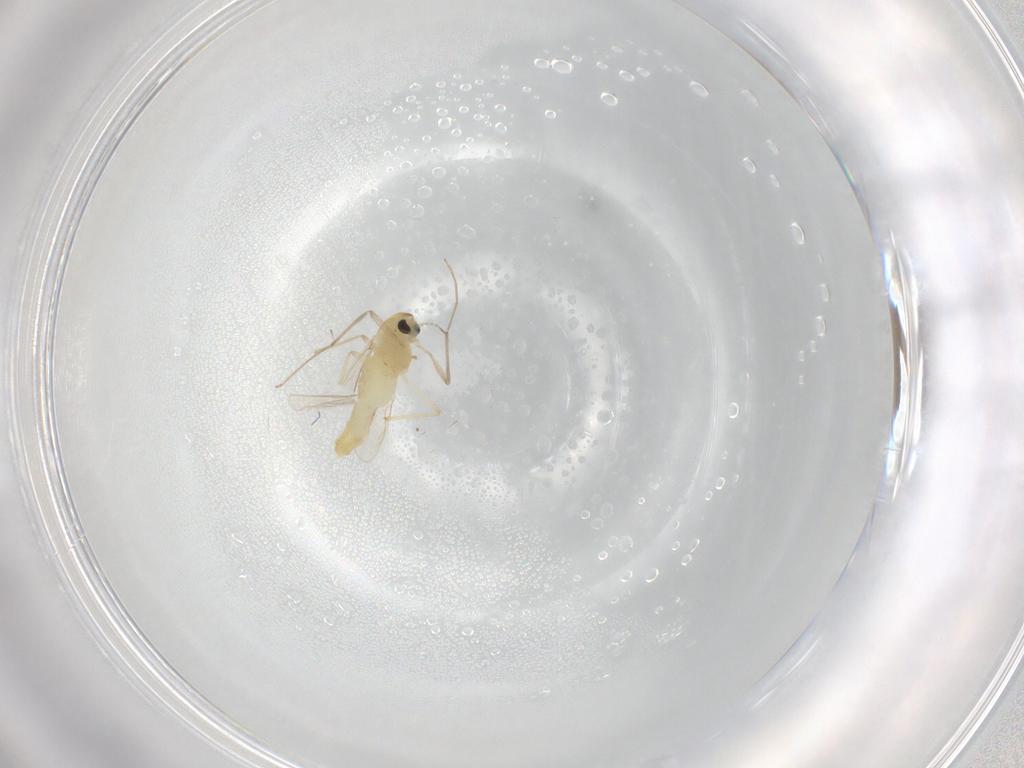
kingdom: Animalia
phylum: Arthropoda
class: Insecta
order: Diptera
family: Chironomidae
